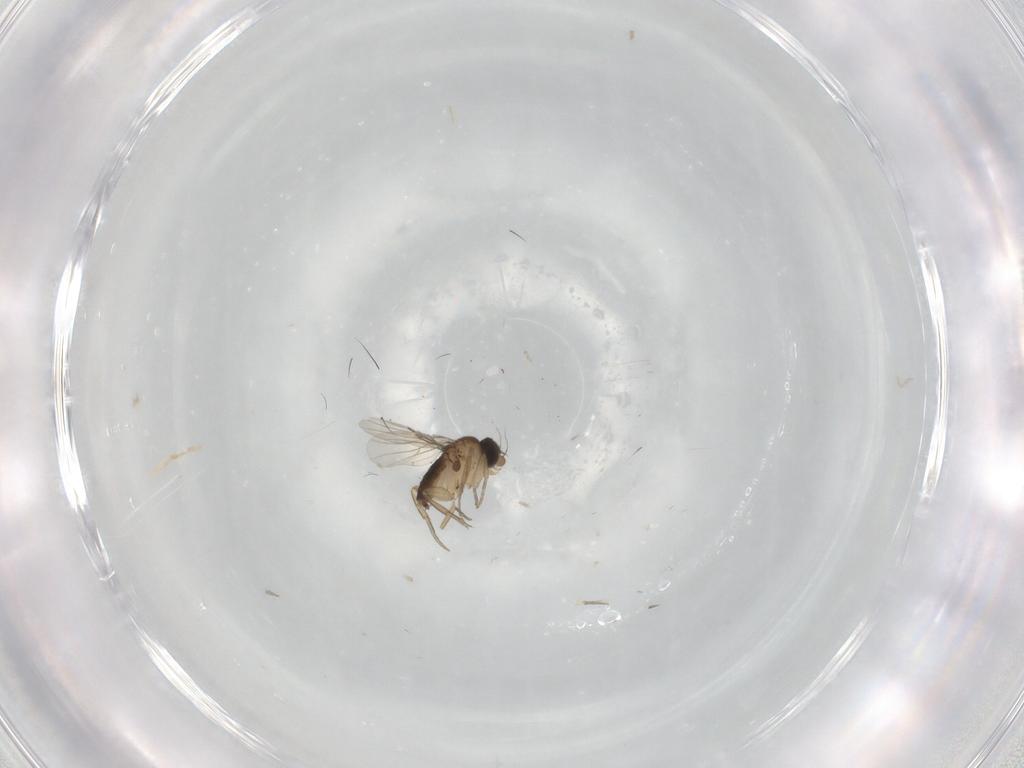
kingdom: Animalia
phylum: Arthropoda
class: Insecta
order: Diptera
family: Phoridae
